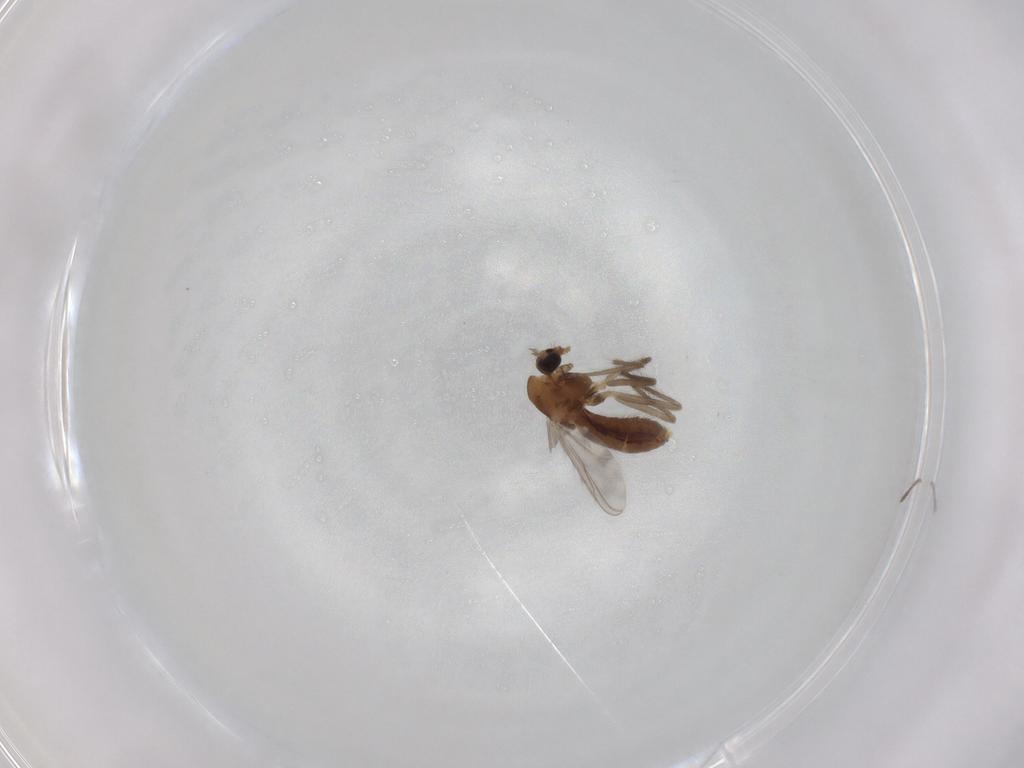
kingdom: Animalia
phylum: Arthropoda
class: Insecta
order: Diptera
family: Chironomidae
